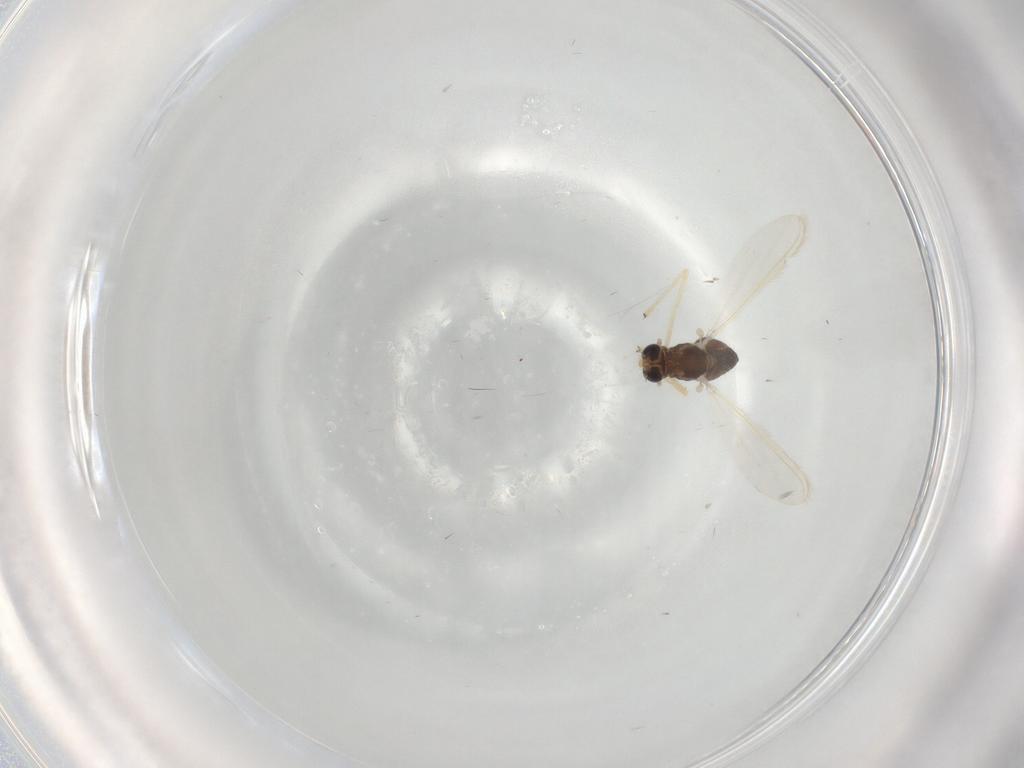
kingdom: Animalia
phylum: Arthropoda
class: Insecta
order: Diptera
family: Chironomidae
